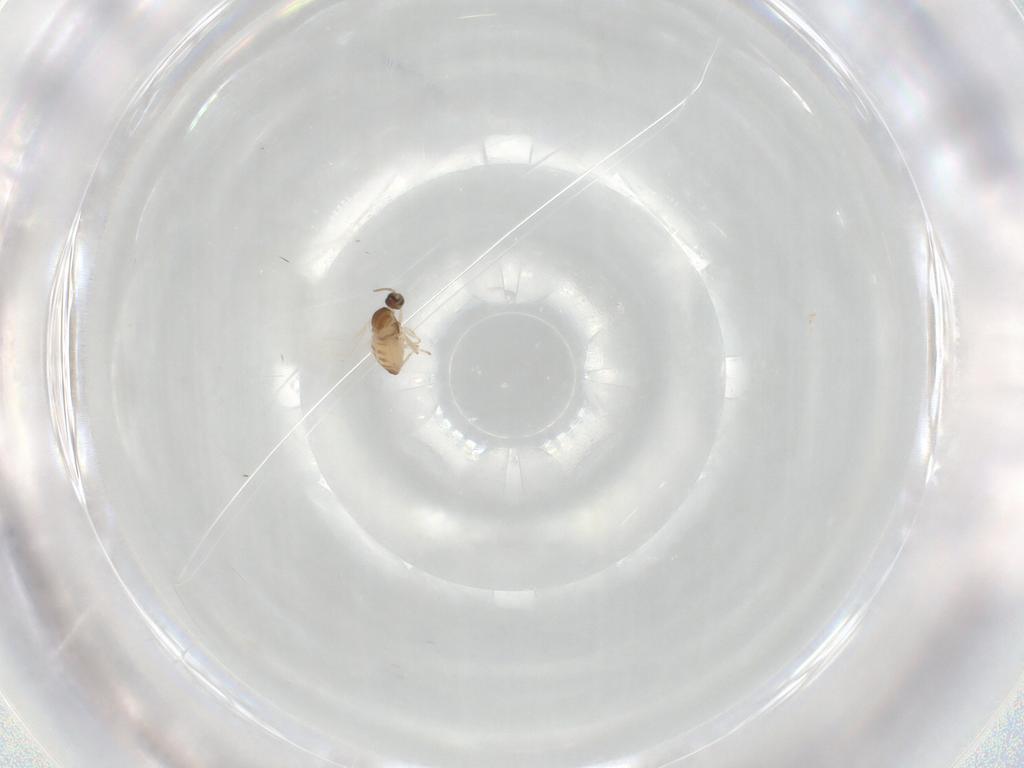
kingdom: Animalia
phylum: Arthropoda
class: Insecta
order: Diptera
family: Cecidomyiidae
